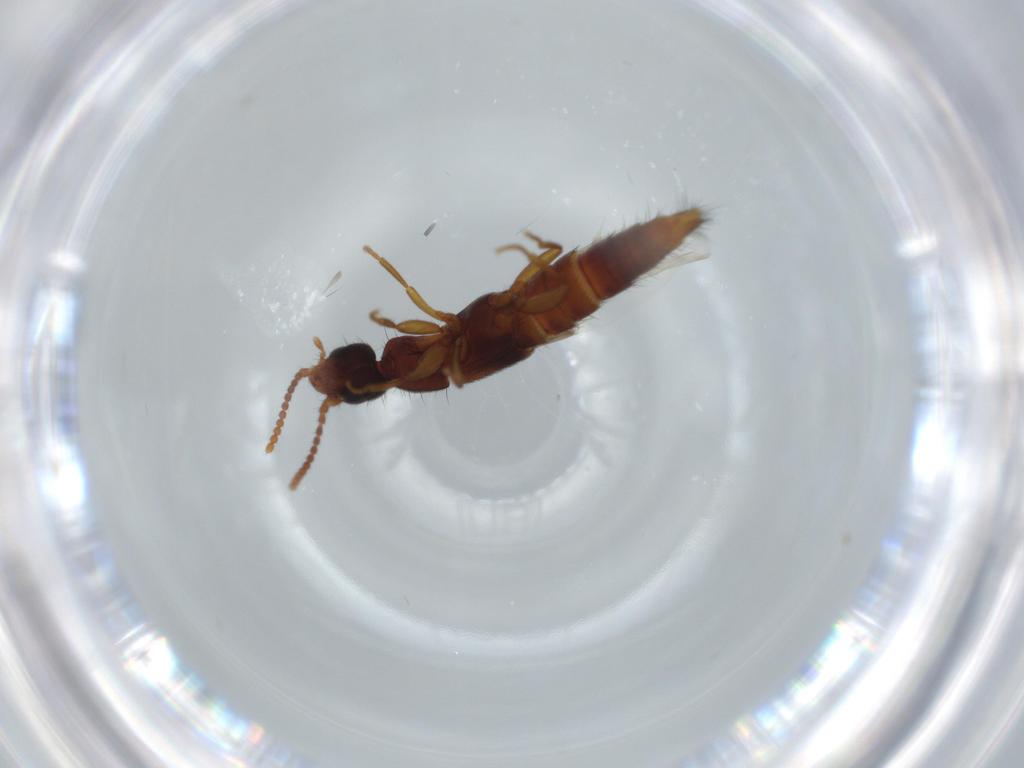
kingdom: Animalia
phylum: Arthropoda
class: Insecta
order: Coleoptera
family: Staphylinidae
